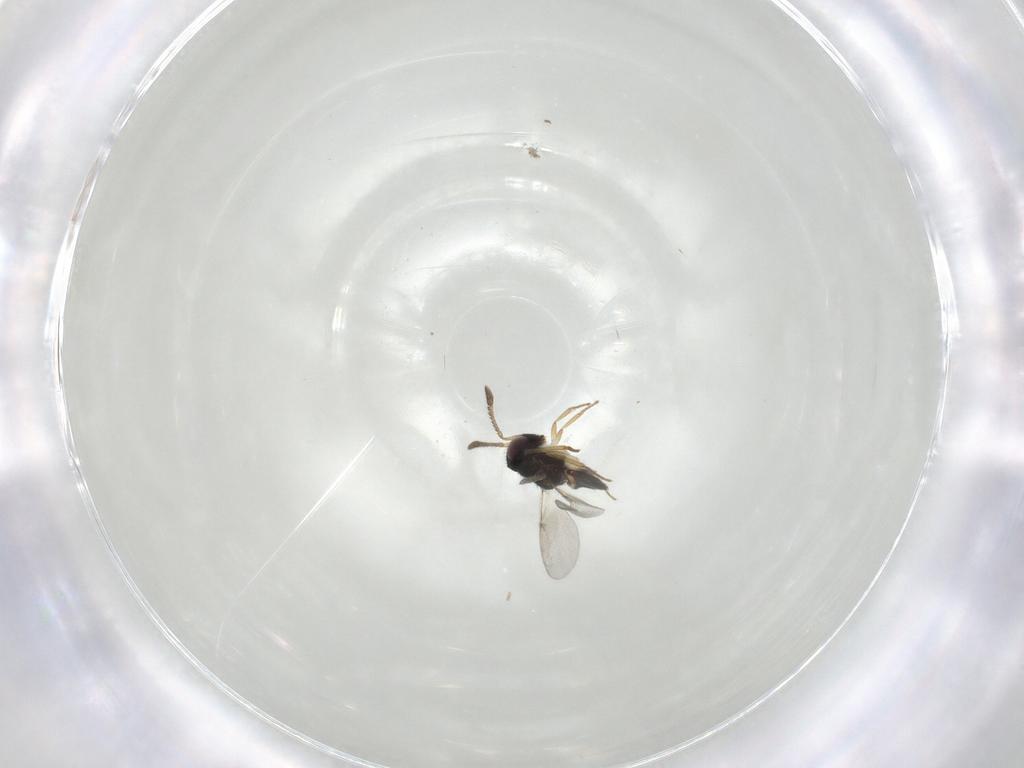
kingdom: Animalia
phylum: Arthropoda
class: Insecta
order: Hymenoptera
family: Encyrtidae
